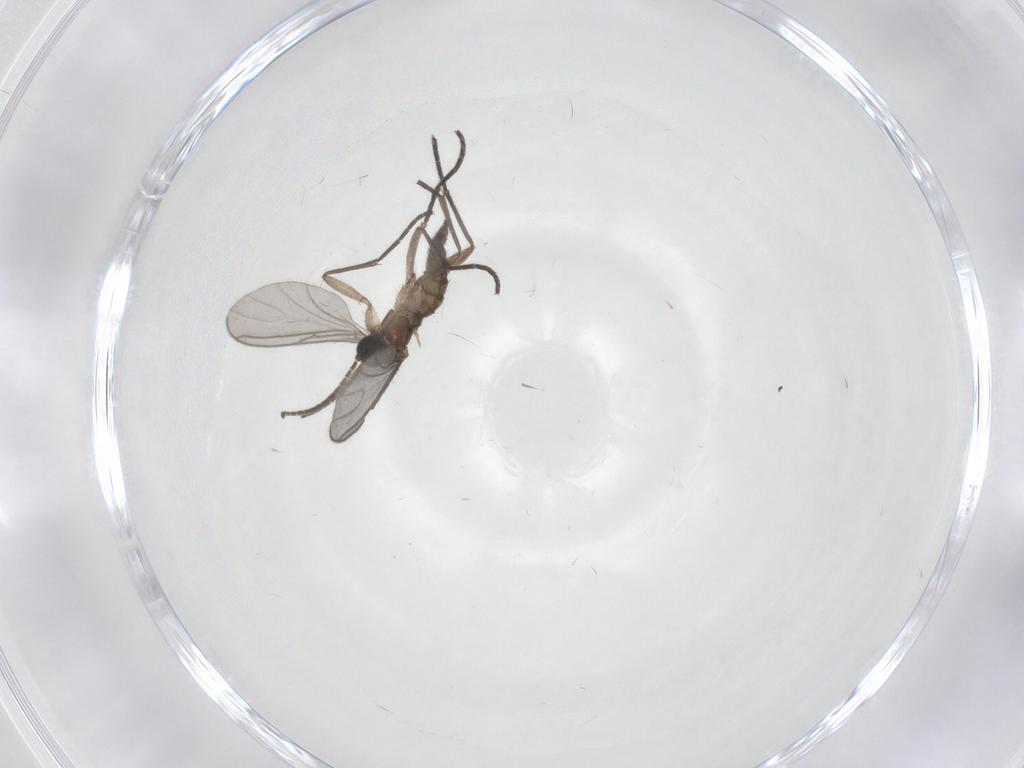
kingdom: Animalia
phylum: Arthropoda
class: Insecta
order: Diptera
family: Sciaridae
